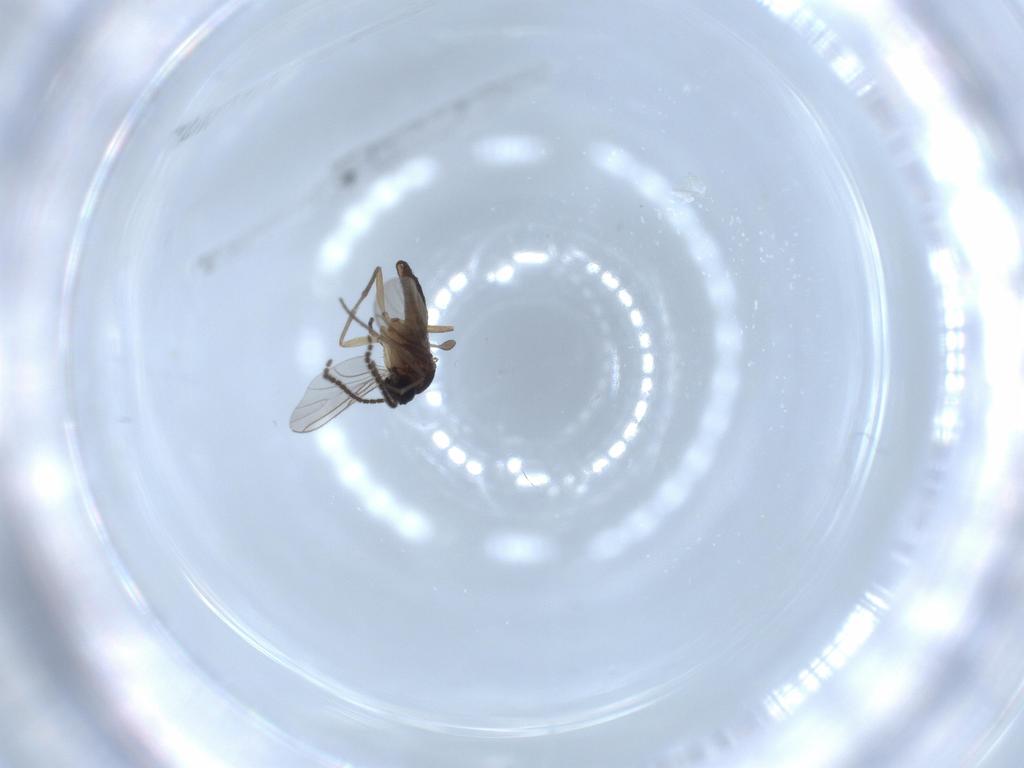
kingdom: Animalia
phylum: Arthropoda
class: Insecta
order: Diptera
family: Sciaridae
